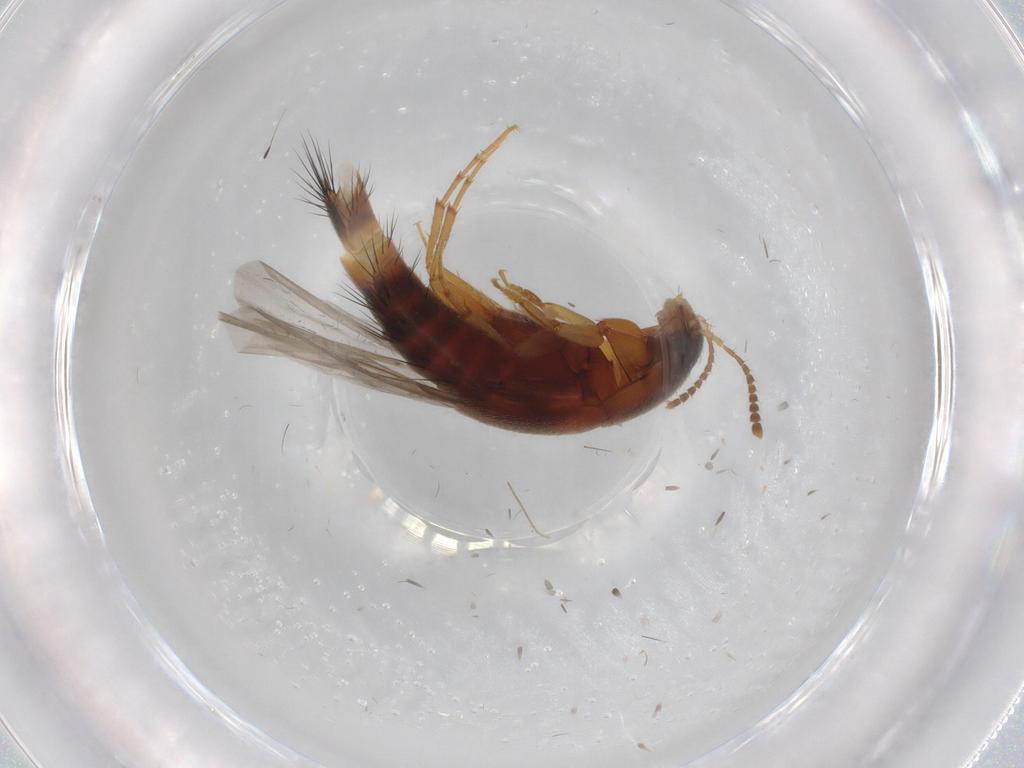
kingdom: Animalia
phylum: Arthropoda
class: Insecta
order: Coleoptera
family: Staphylinidae
